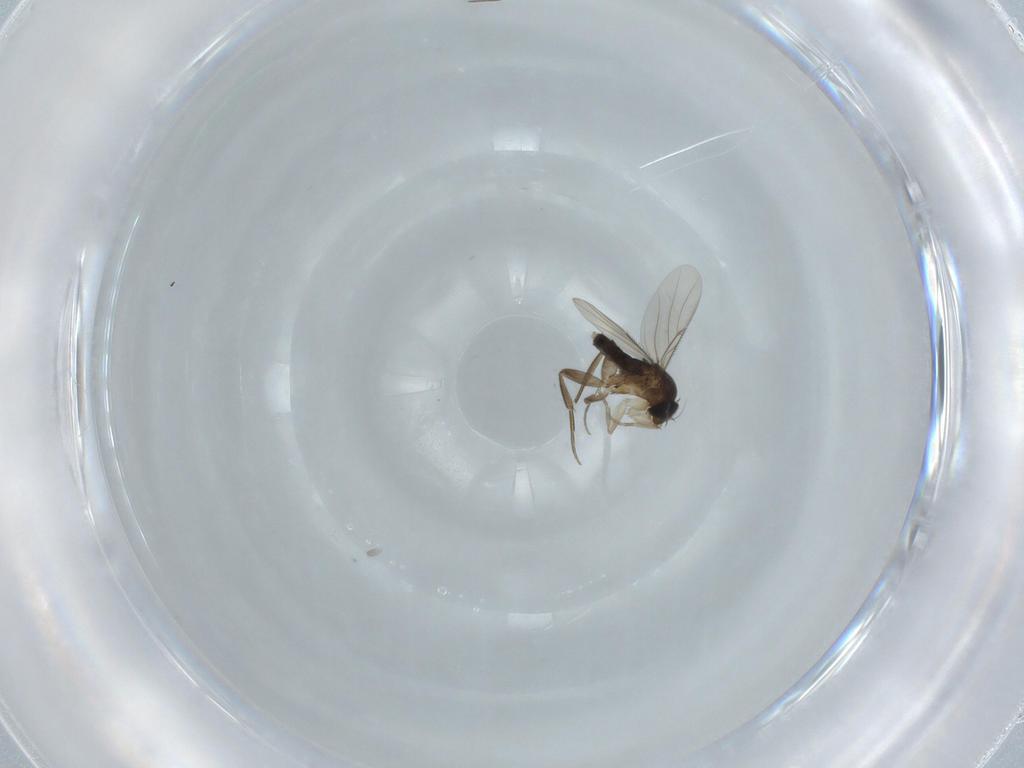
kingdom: Animalia
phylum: Arthropoda
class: Insecta
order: Diptera
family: Phoridae
